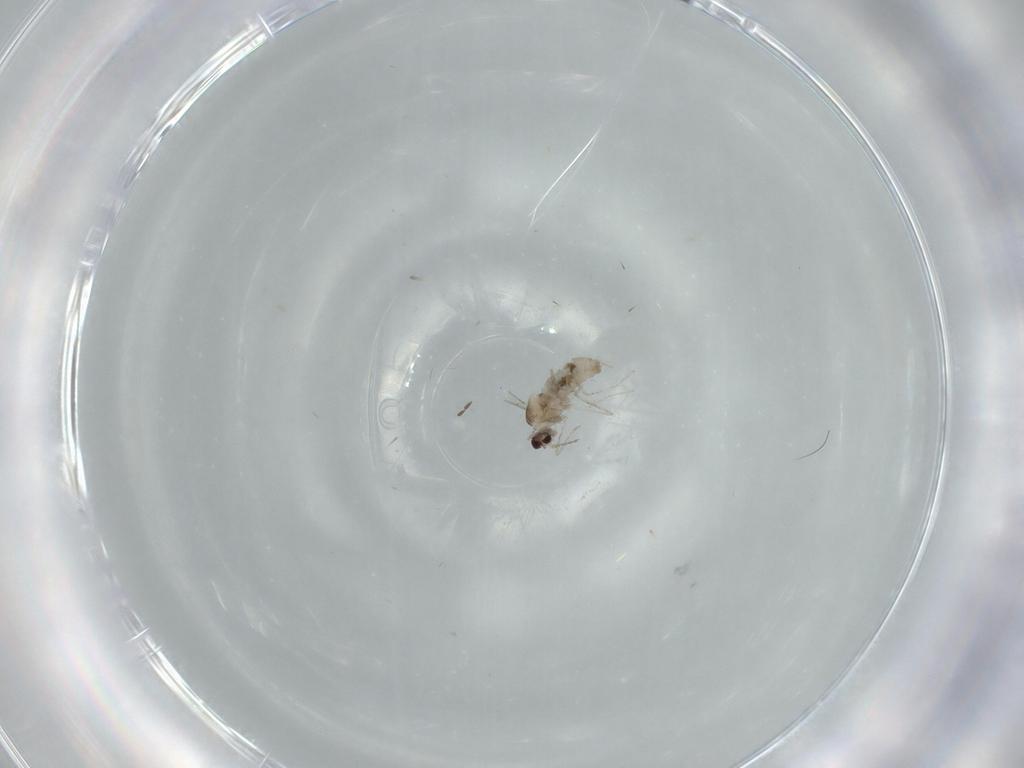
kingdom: Animalia
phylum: Arthropoda
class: Insecta
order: Diptera
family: Cecidomyiidae
